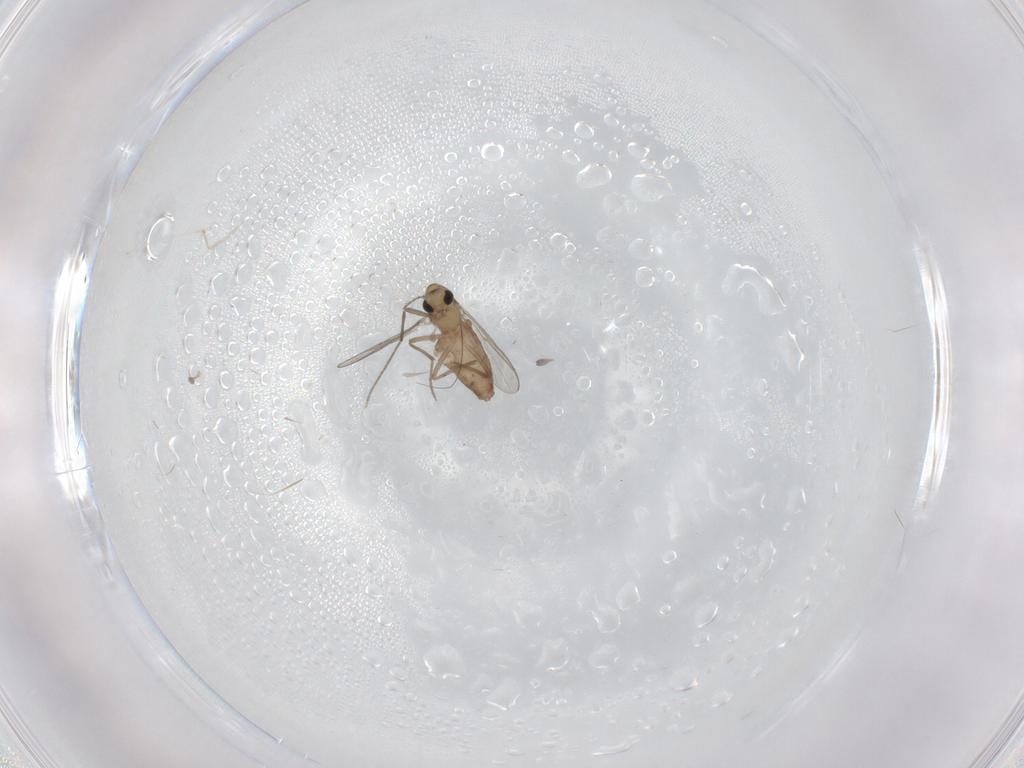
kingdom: Animalia
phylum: Arthropoda
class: Insecta
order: Diptera
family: Chironomidae
